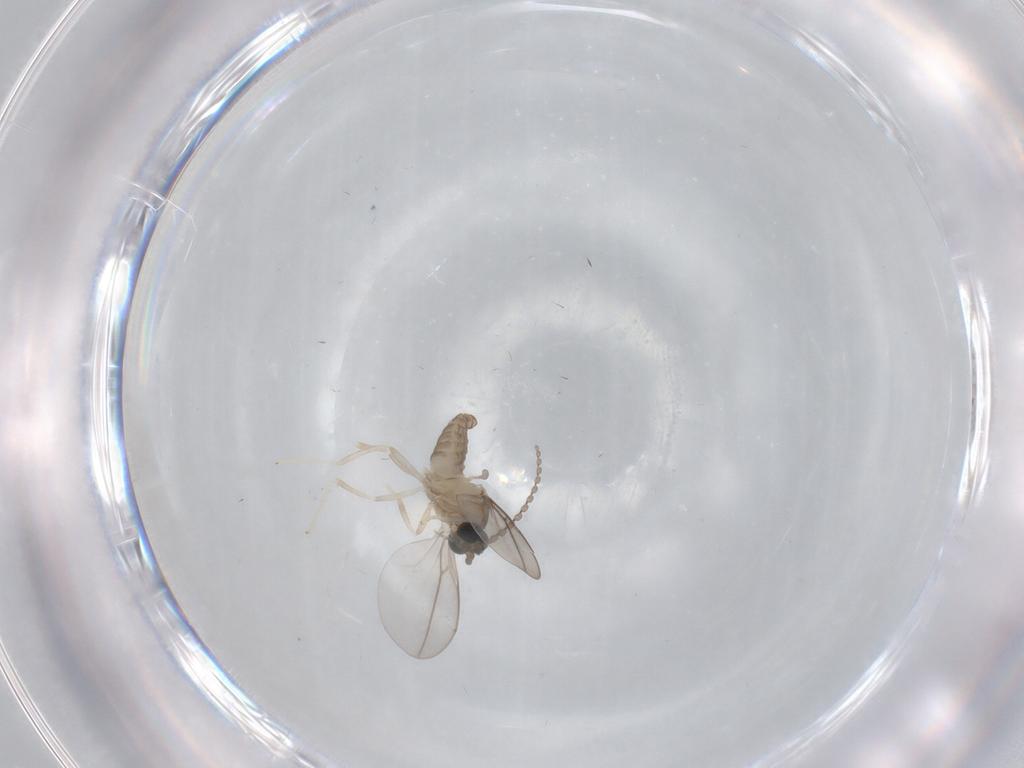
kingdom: Animalia
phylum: Arthropoda
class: Insecta
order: Diptera
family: Cecidomyiidae
